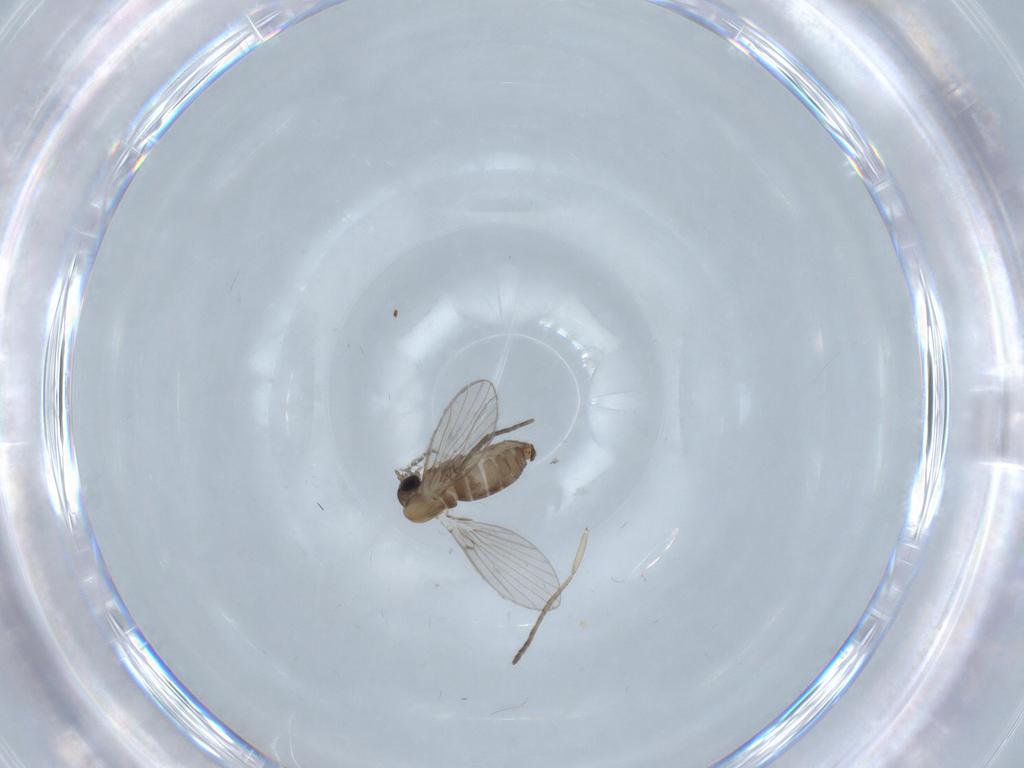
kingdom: Animalia
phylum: Arthropoda
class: Insecta
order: Diptera
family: Psychodidae
